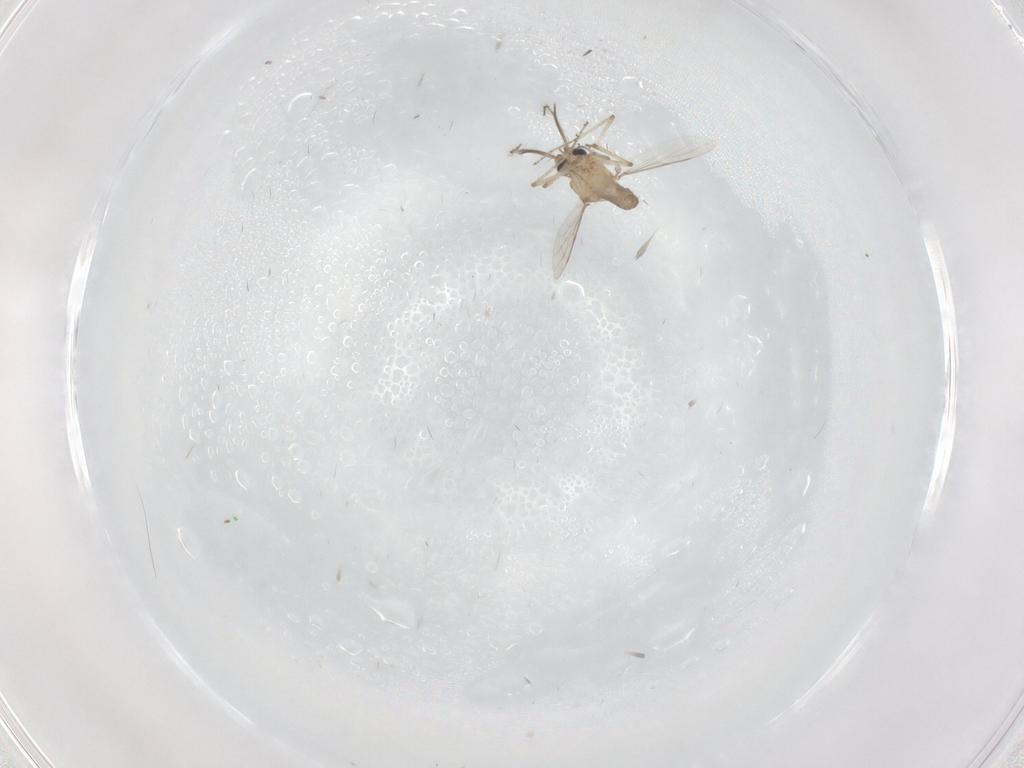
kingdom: Animalia
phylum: Arthropoda
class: Insecta
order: Diptera
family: Ceratopogonidae
